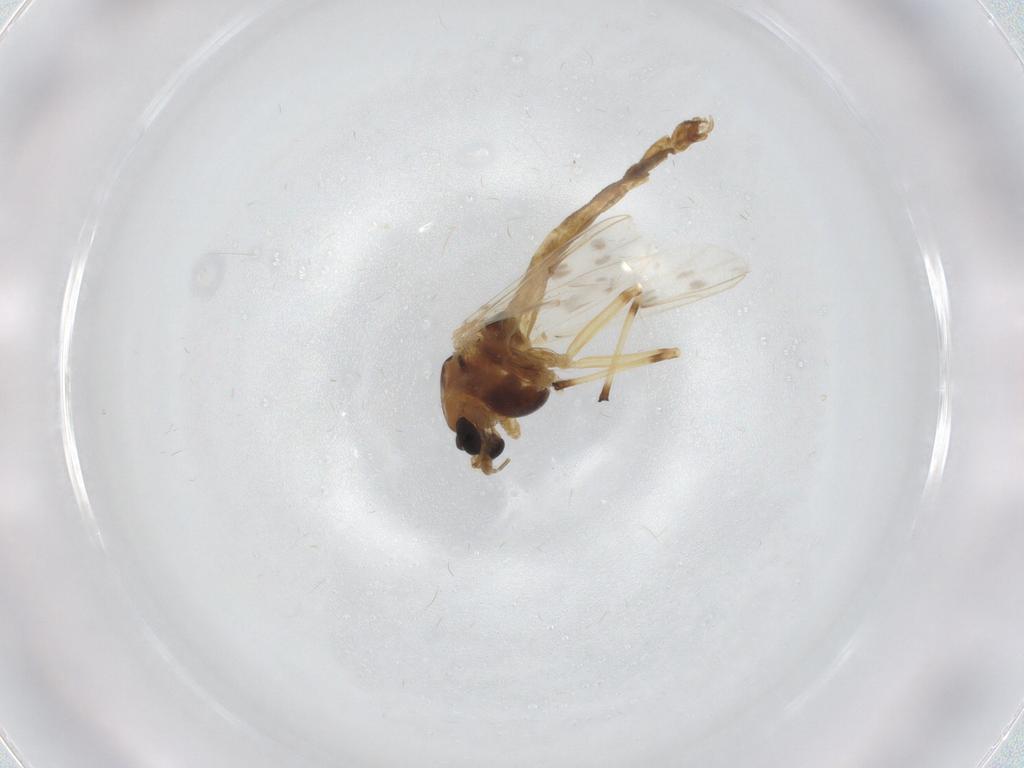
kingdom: Animalia
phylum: Arthropoda
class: Insecta
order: Diptera
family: Chironomidae
